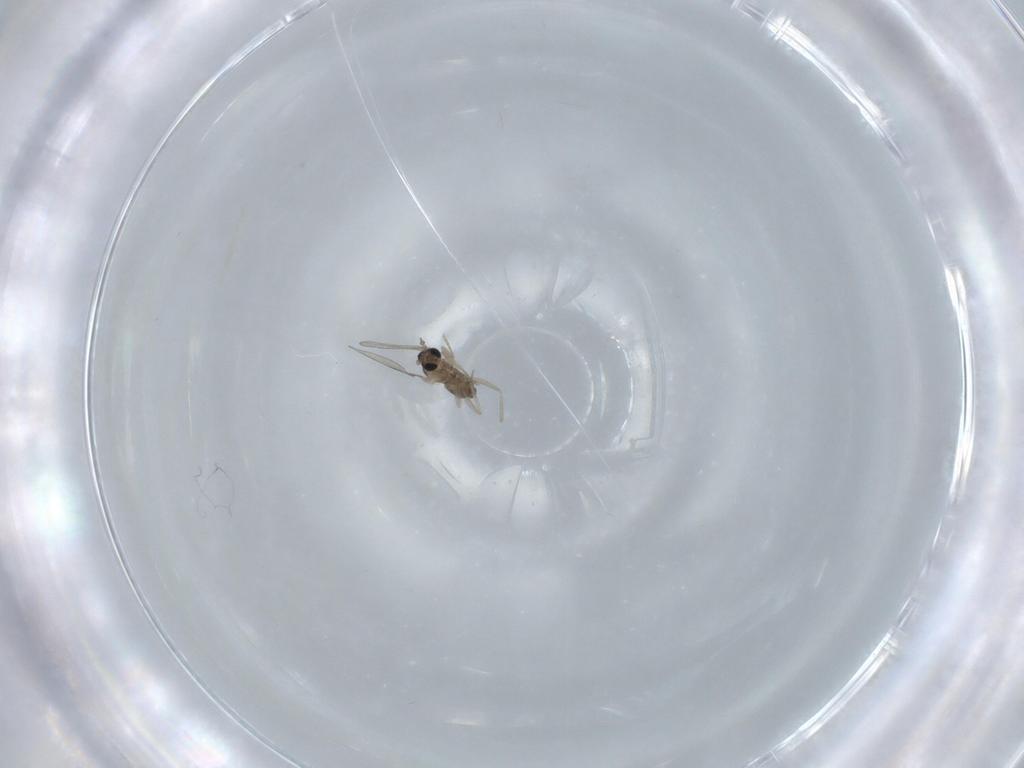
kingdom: Animalia
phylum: Arthropoda
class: Insecta
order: Diptera
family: Cecidomyiidae
